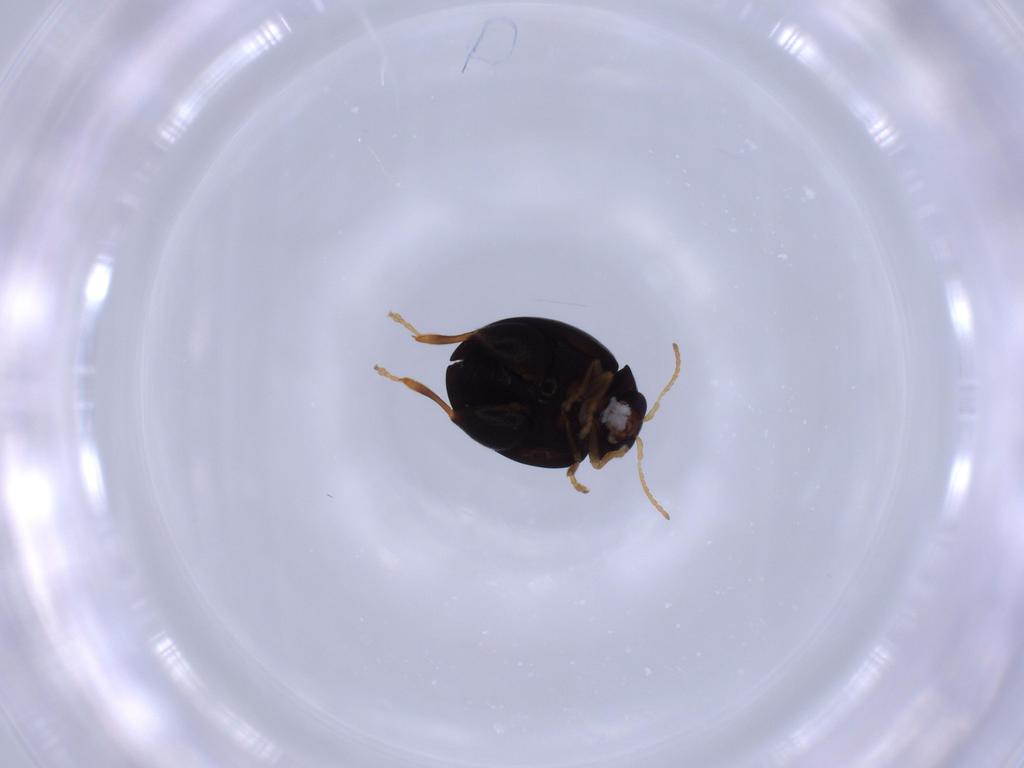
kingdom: Animalia
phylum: Arthropoda
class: Insecta
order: Coleoptera
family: Chrysomelidae
